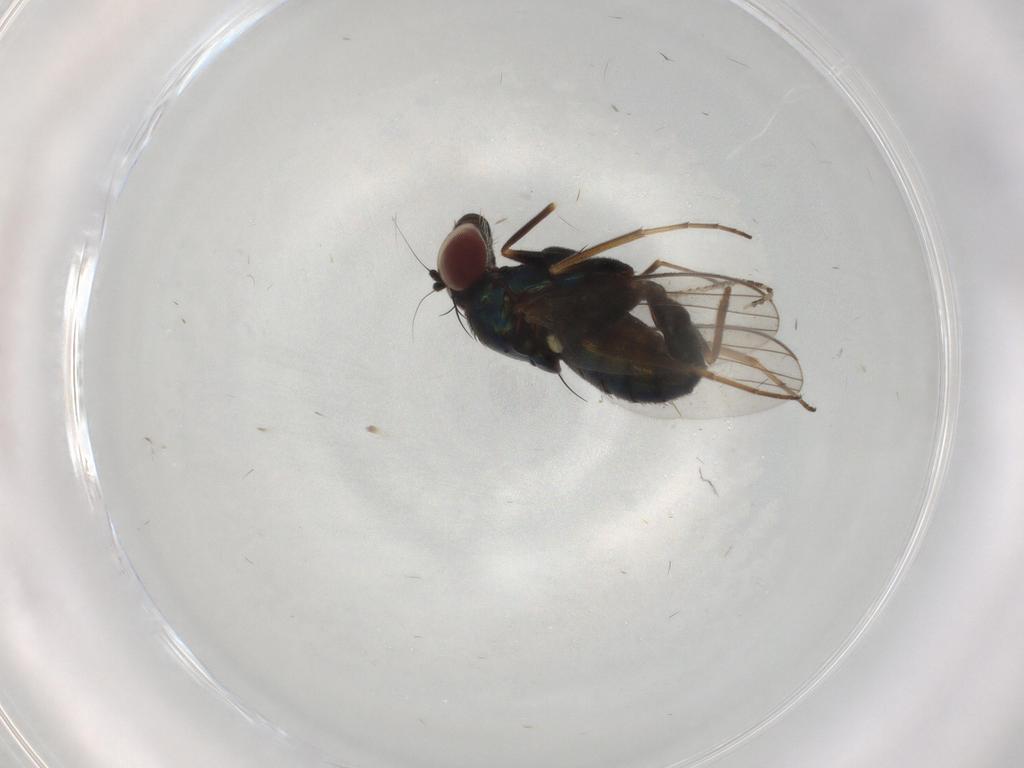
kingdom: Animalia
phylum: Arthropoda
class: Insecta
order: Diptera
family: Dolichopodidae
